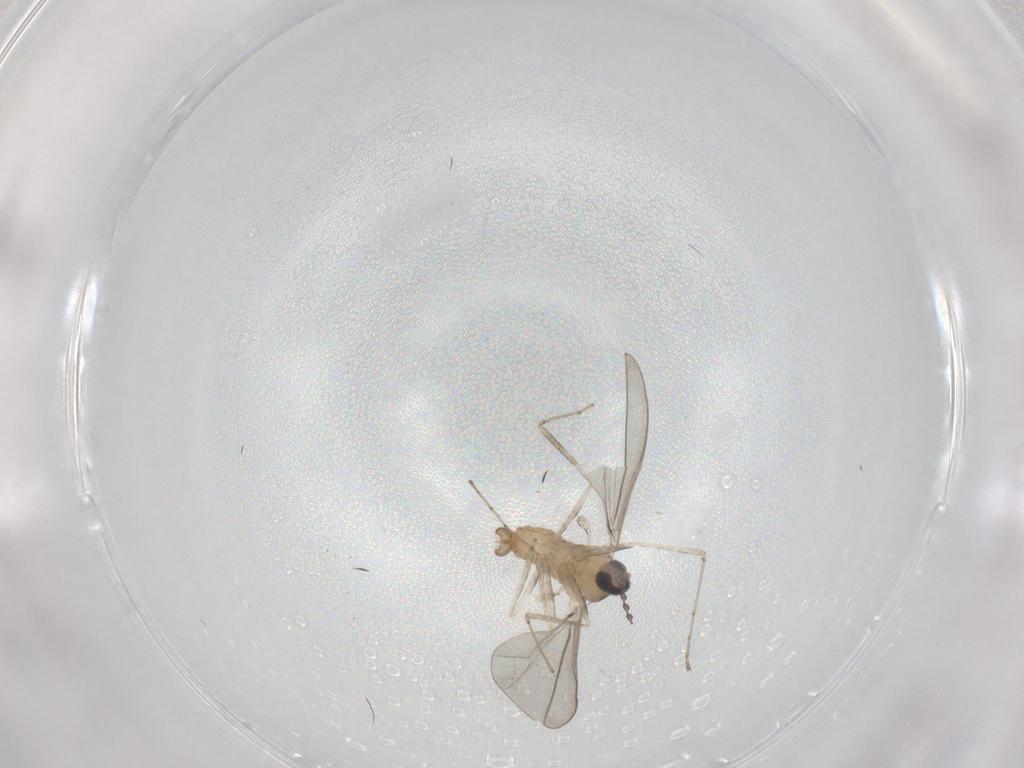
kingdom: Animalia
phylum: Arthropoda
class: Insecta
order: Diptera
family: Cecidomyiidae
